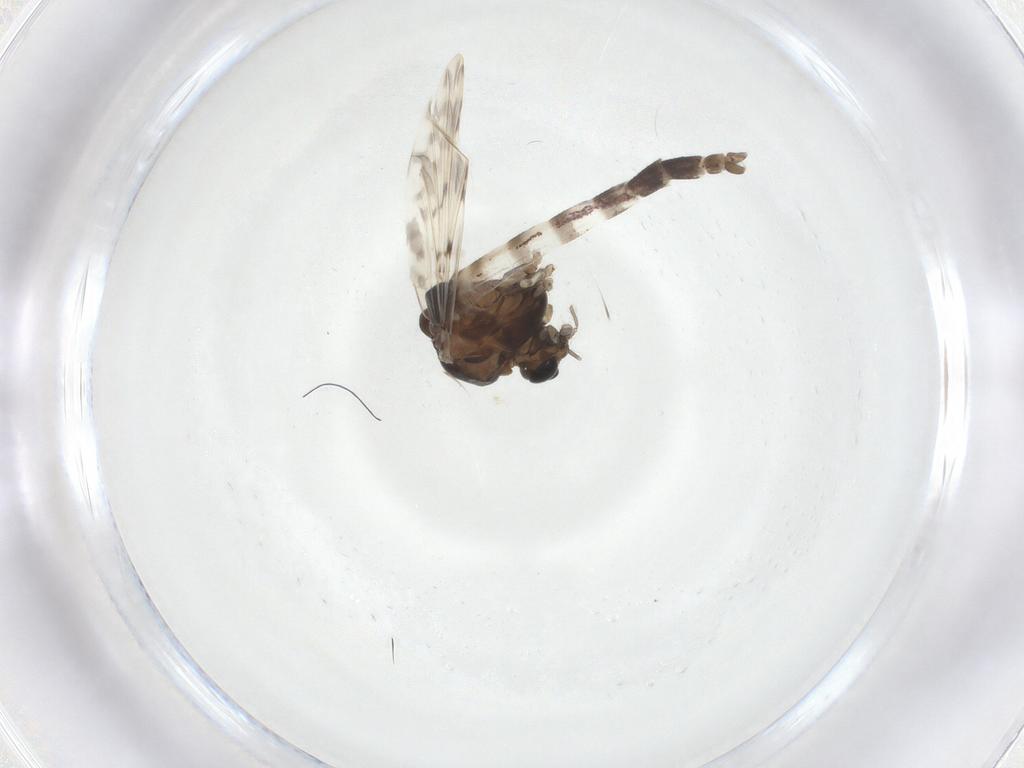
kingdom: Animalia
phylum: Arthropoda
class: Insecta
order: Diptera
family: Chironomidae
